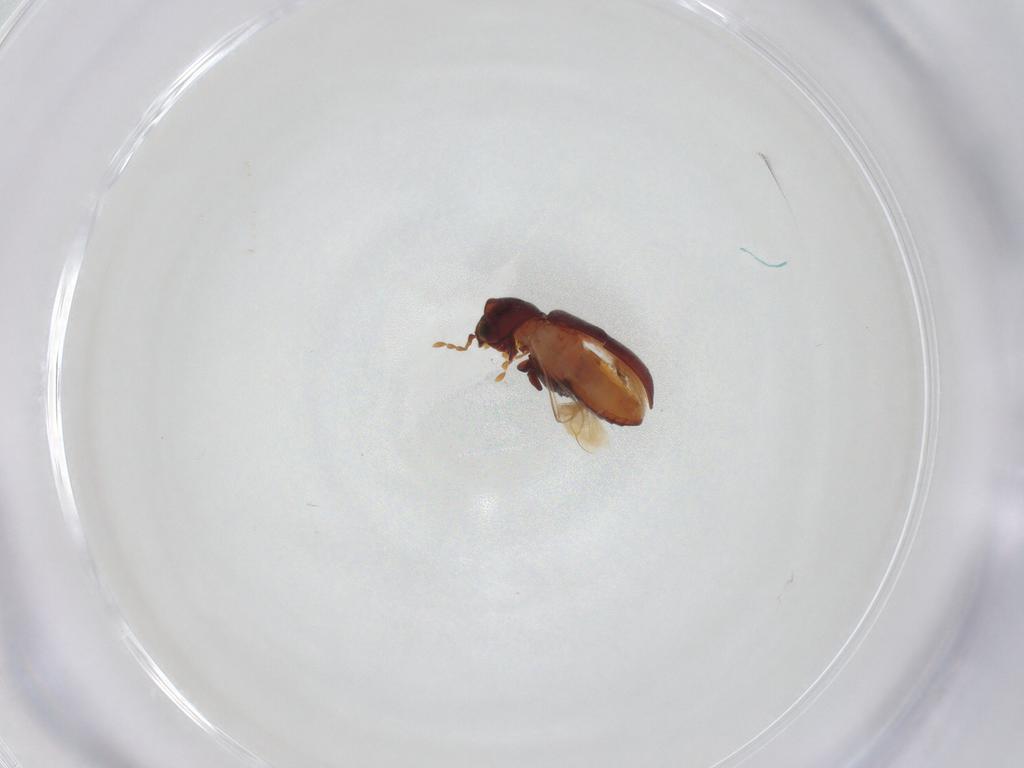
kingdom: Animalia
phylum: Arthropoda
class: Insecta
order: Coleoptera
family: Ptinidae
